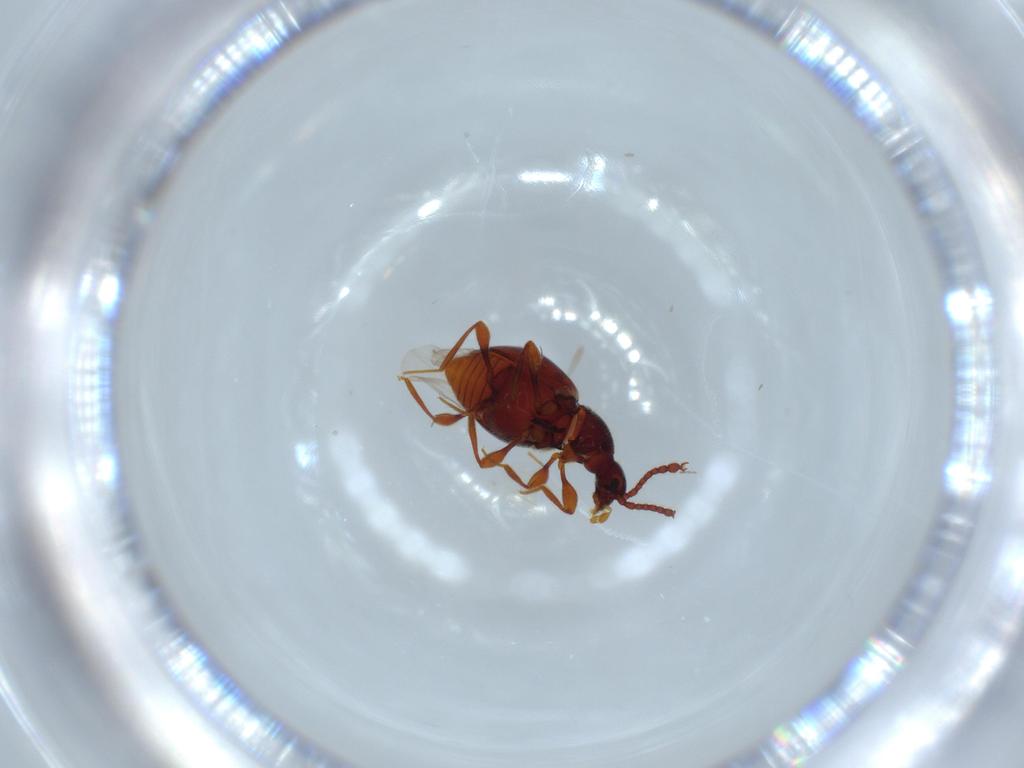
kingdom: Animalia
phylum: Arthropoda
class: Insecta
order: Coleoptera
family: Staphylinidae
